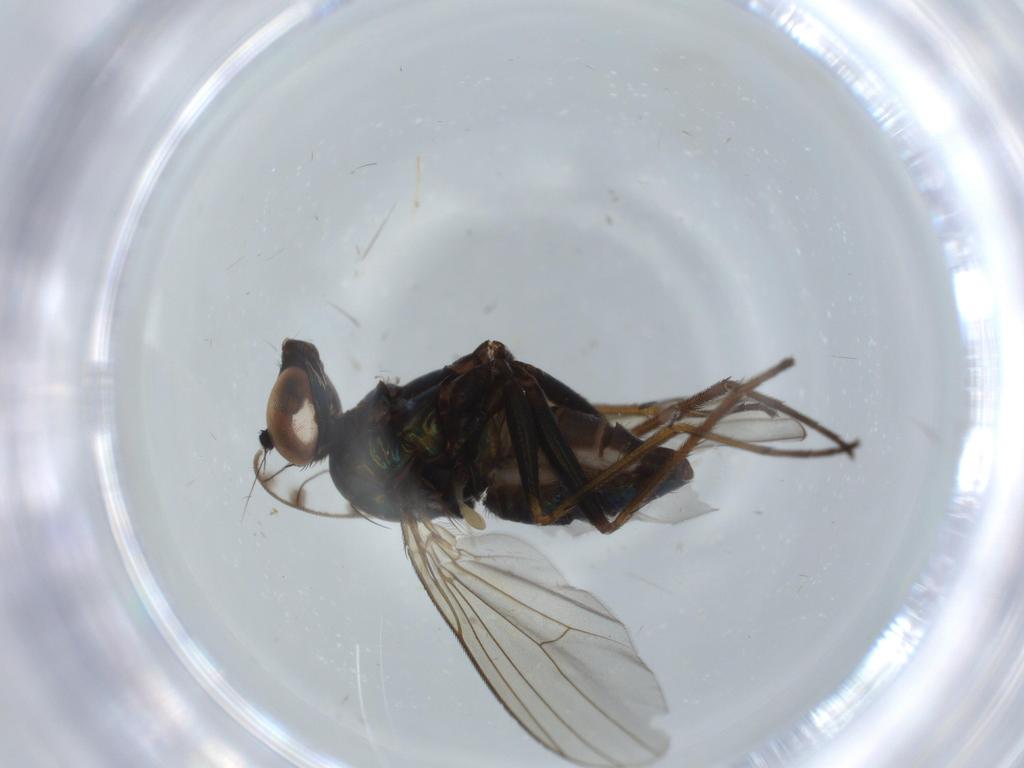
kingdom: Animalia
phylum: Arthropoda
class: Insecta
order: Diptera
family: Dolichopodidae
